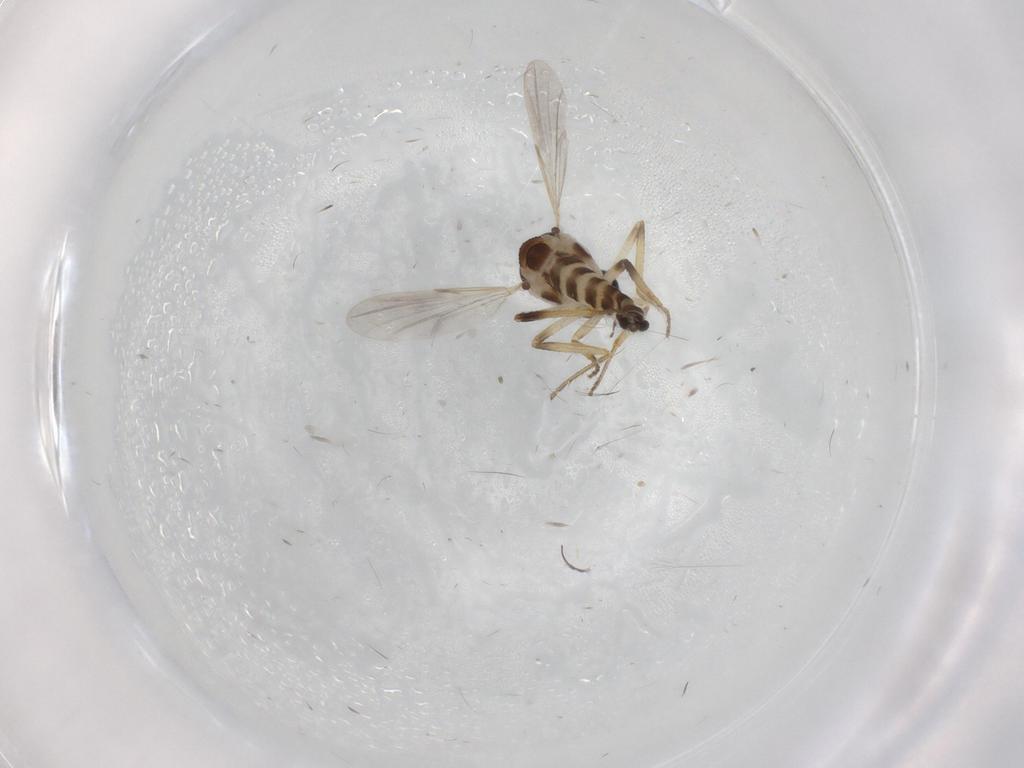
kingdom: Animalia
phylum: Arthropoda
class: Insecta
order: Diptera
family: Ceratopogonidae
